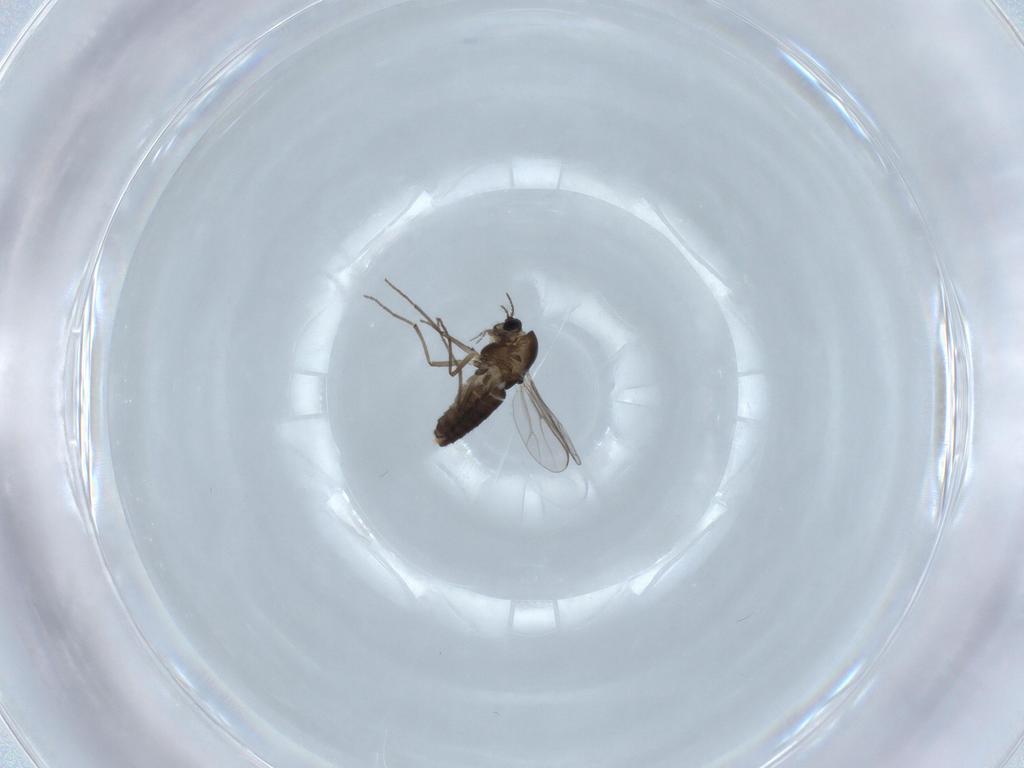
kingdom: Animalia
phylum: Arthropoda
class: Insecta
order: Diptera
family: Chironomidae
